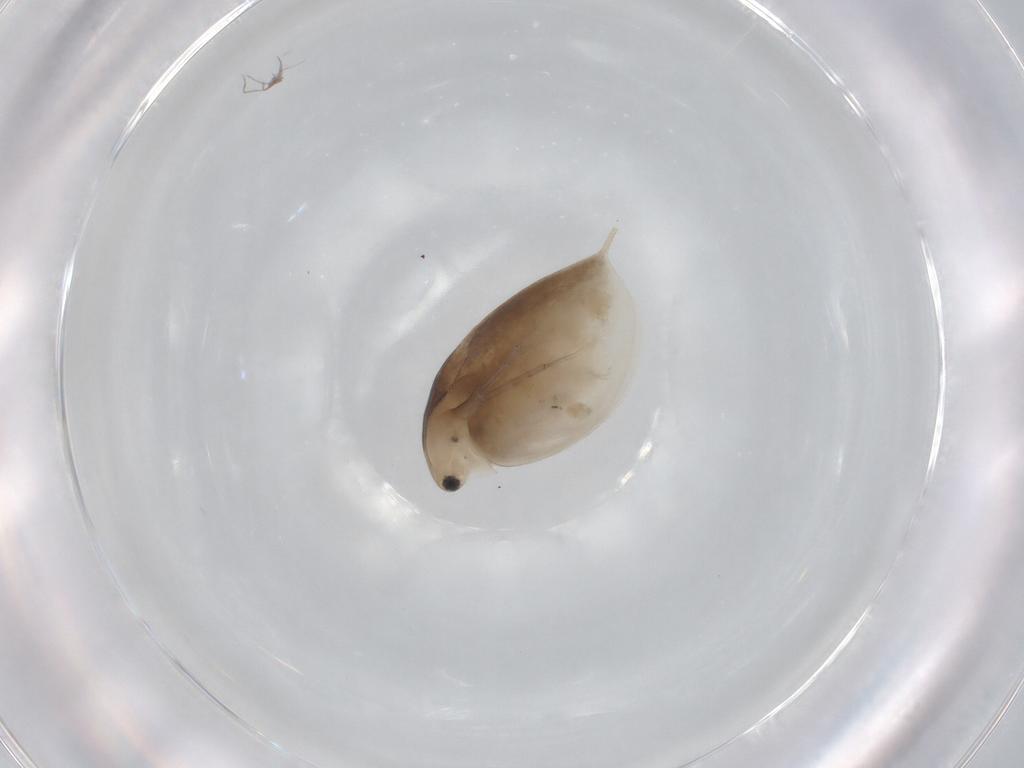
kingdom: Animalia
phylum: Arthropoda
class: Branchiopoda
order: Diplostraca
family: Daphniidae
